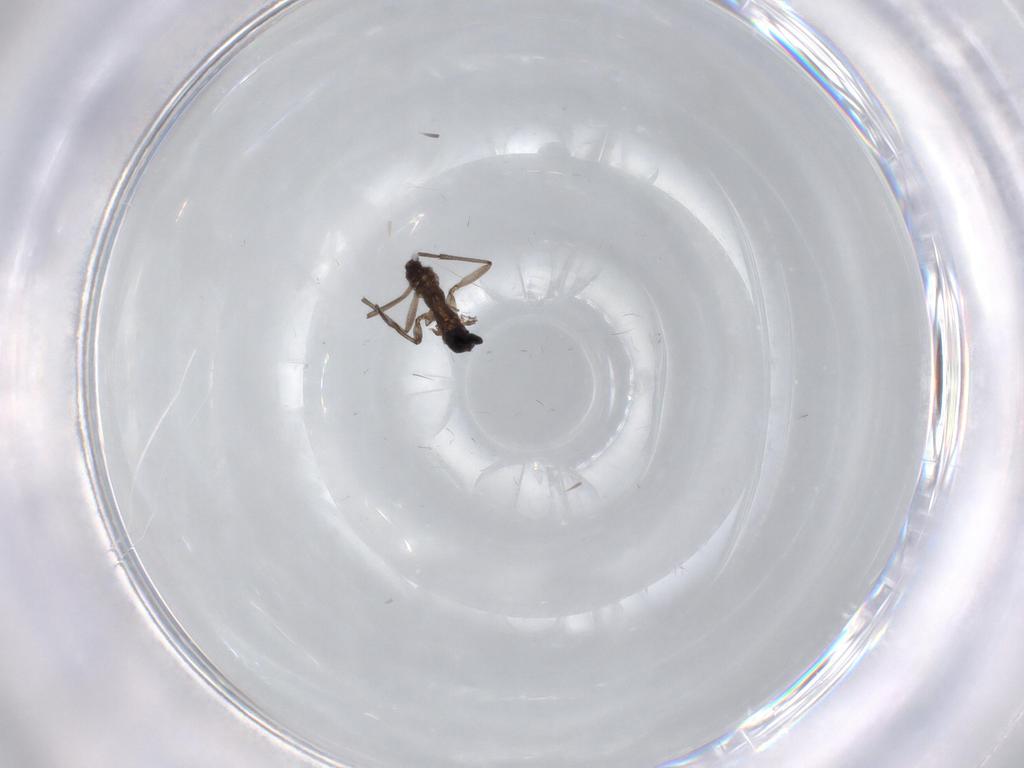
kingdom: Animalia
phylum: Arthropoda
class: Insecta
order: Diptera
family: Cecidomyiidae
